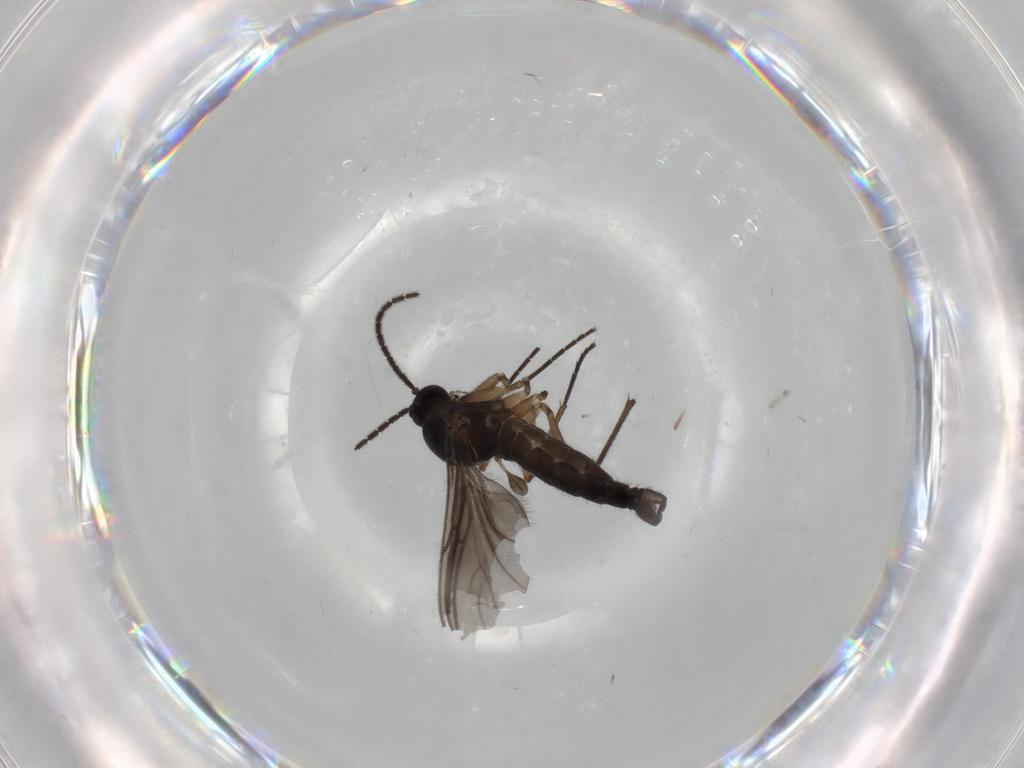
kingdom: Animalia
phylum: Arthropoda
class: Insecta
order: Diptera
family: Sciaridae
